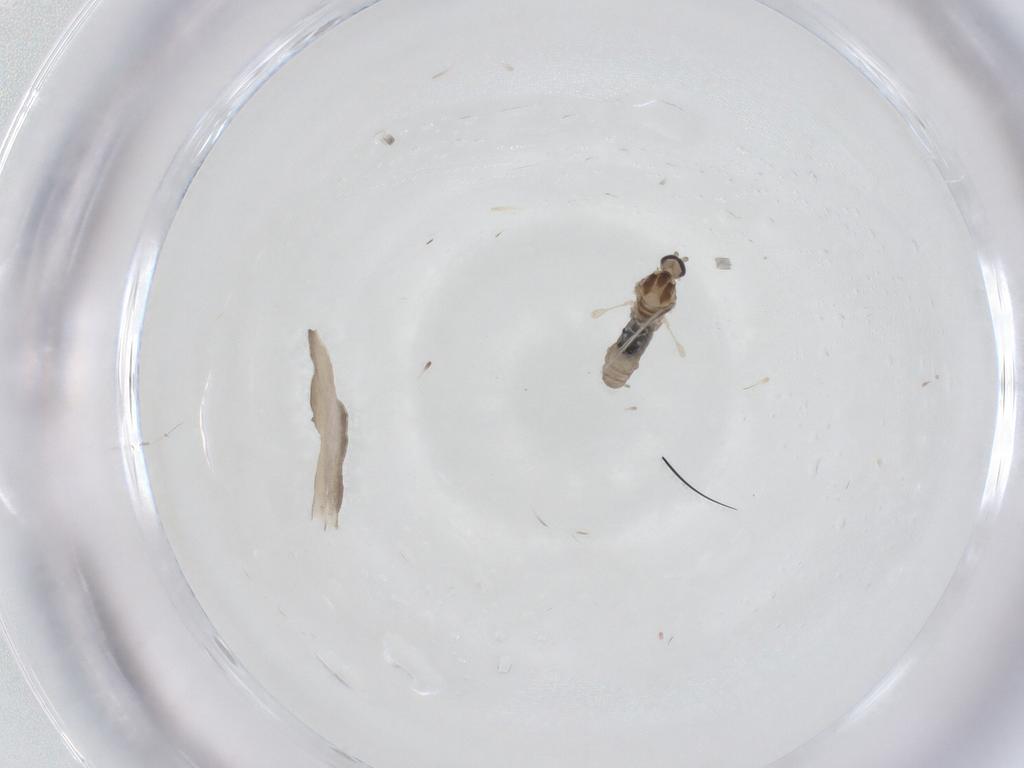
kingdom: Animalia
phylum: Arthropoda
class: Insecta
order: Diptera
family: Cecidomyiidae
